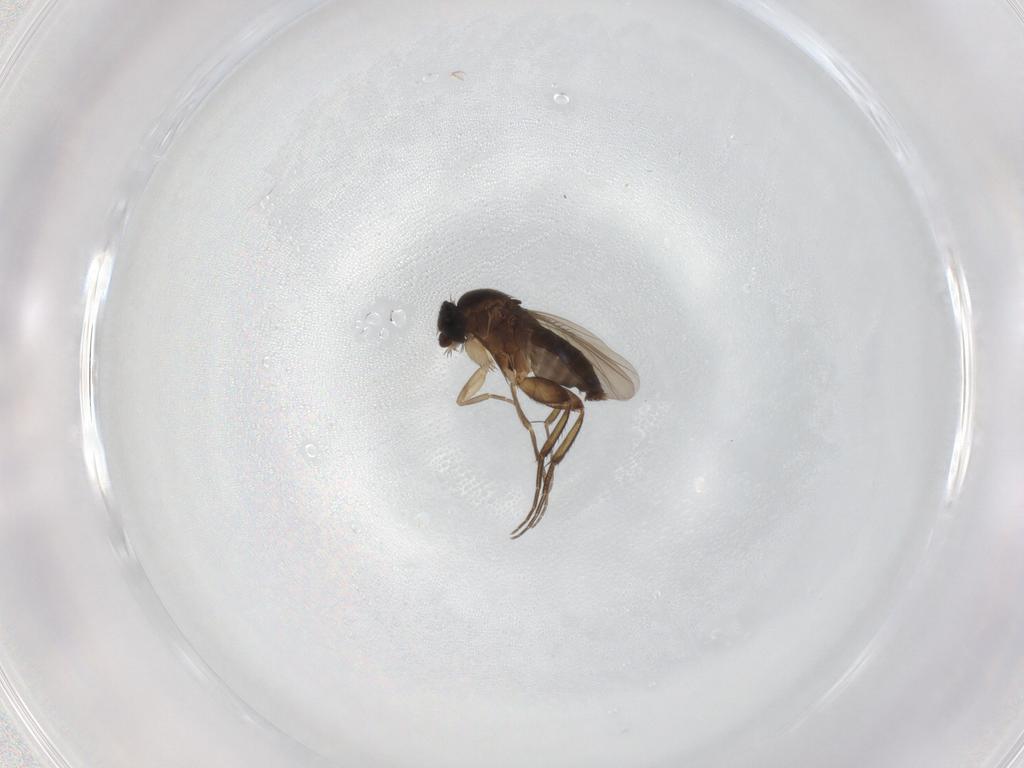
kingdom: Animalia
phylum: Arthropoda
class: Insecta
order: Diptera
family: Phoridae
